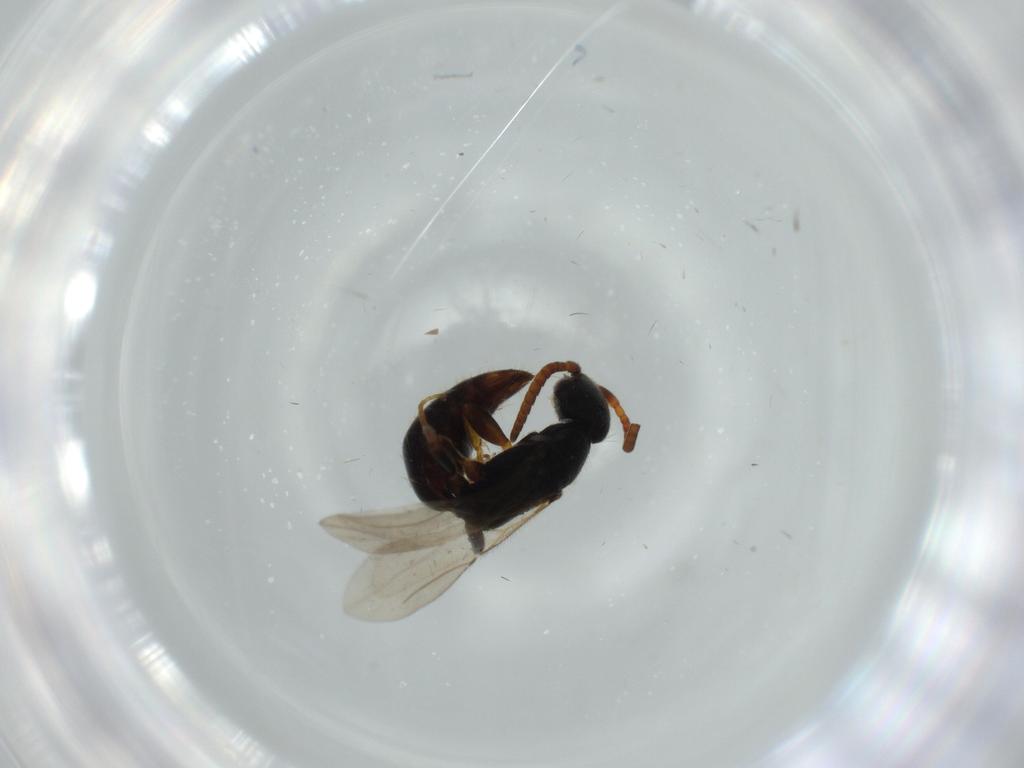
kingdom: Animalia
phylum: Arthropoda
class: Insecta
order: Hymenoptera
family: Bethylidae
